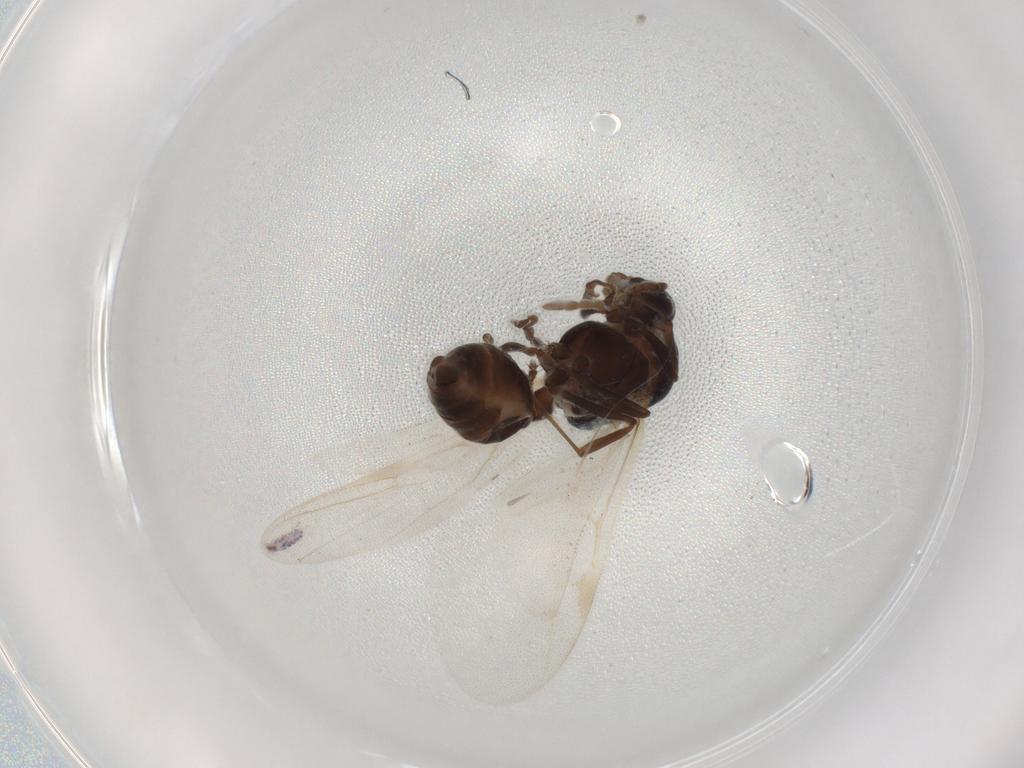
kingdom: Animalia
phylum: Arthropoda
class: Insecta
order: Hymenoptera
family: Formicidae
